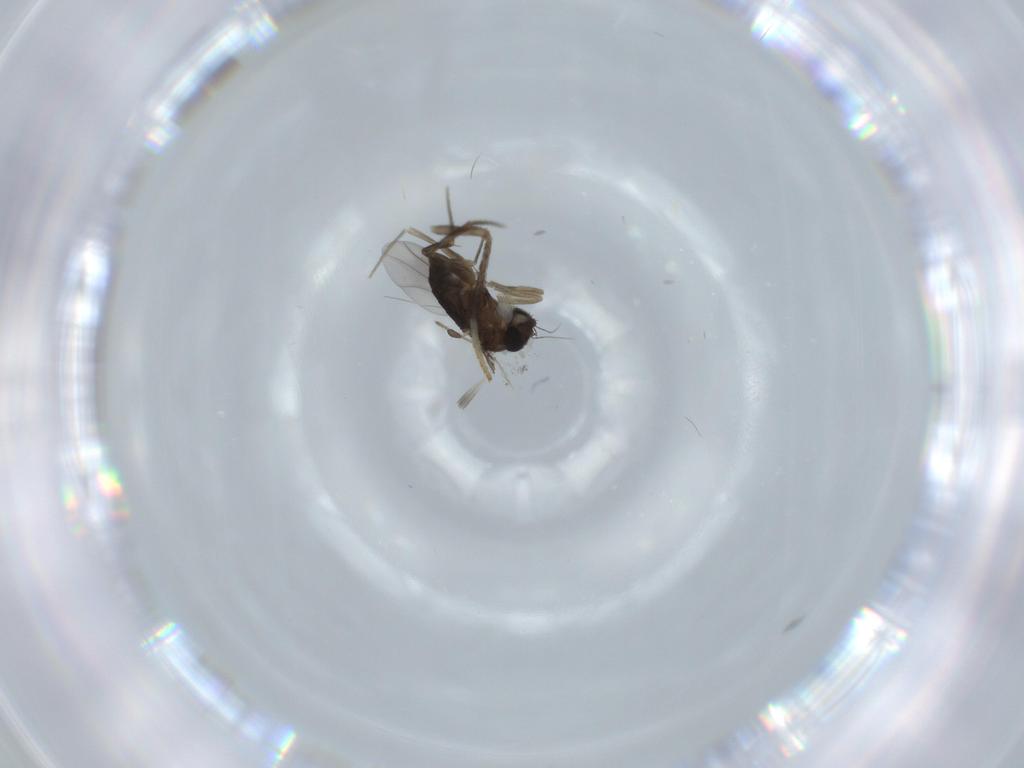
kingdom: Animalia
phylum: Arthropoda
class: Insecta
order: Diptera
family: Phoridae
